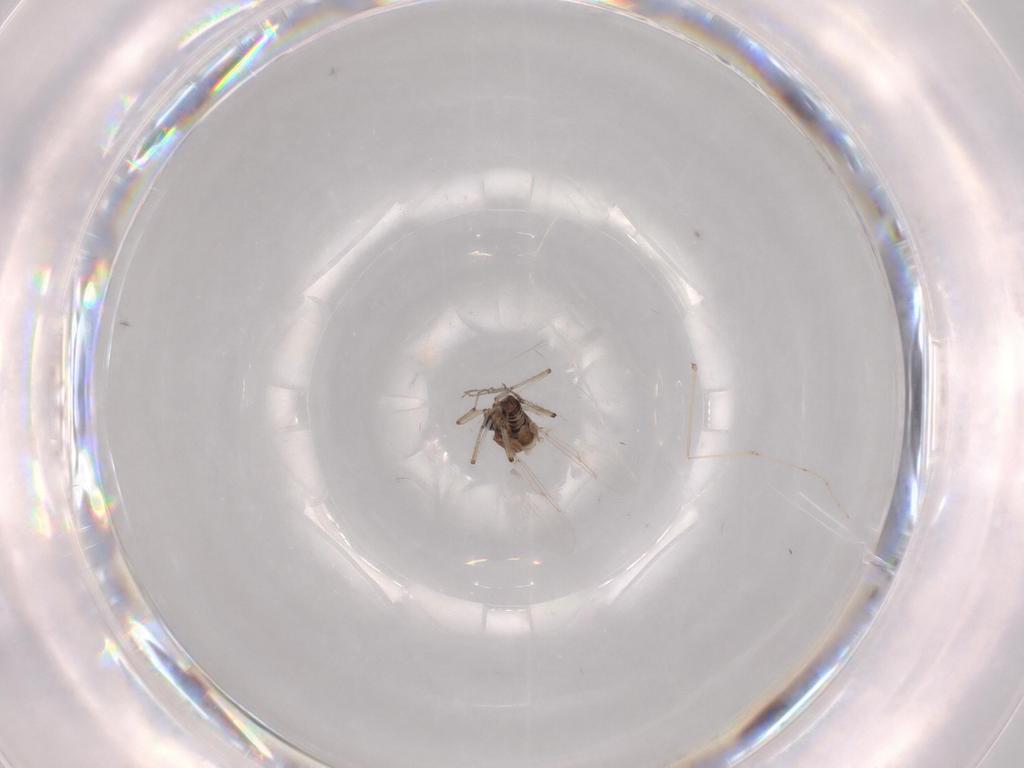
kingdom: Animalia
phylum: Arthropoda
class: Insecta
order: Diptera
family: Ceratopogonidae
